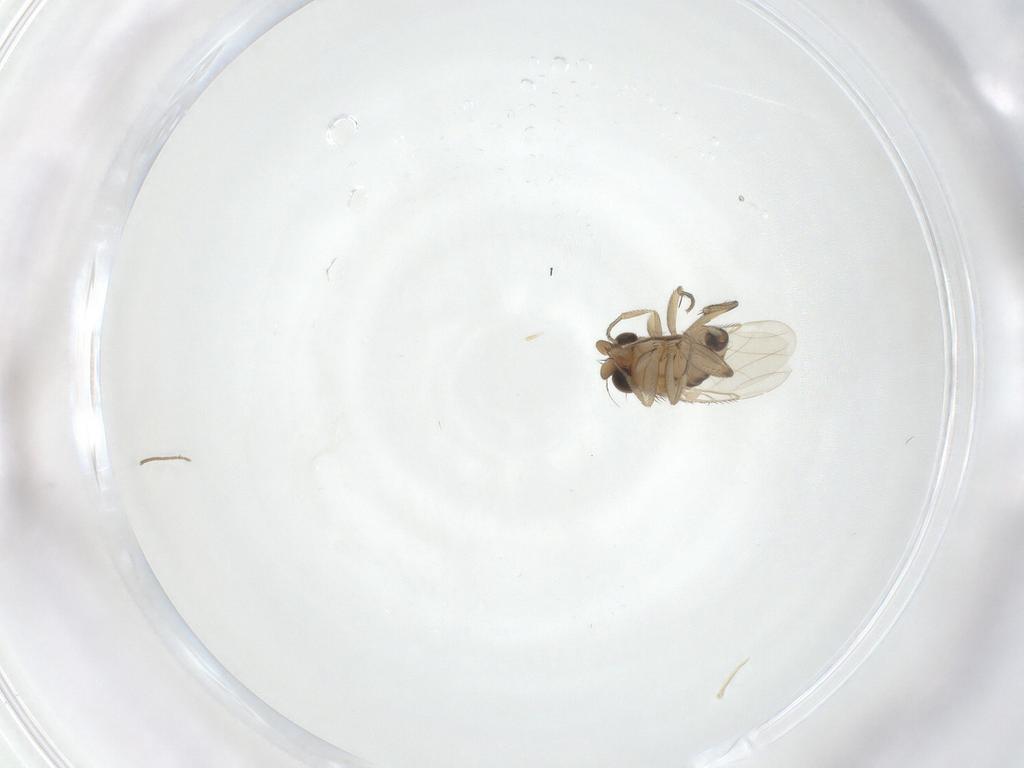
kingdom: Animalia
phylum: Arthropoda
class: Insecta
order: Diptera
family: Phoridae
